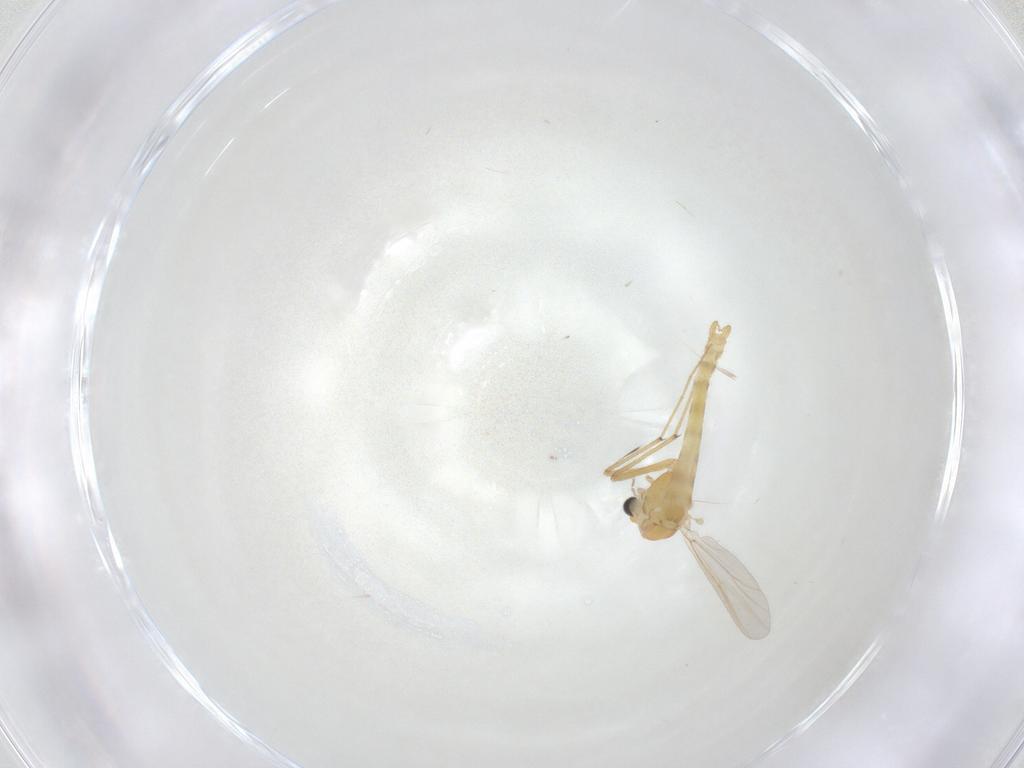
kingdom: Animalia
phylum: Arthropoda
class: Insecta
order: Diptera
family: Chironomidae
